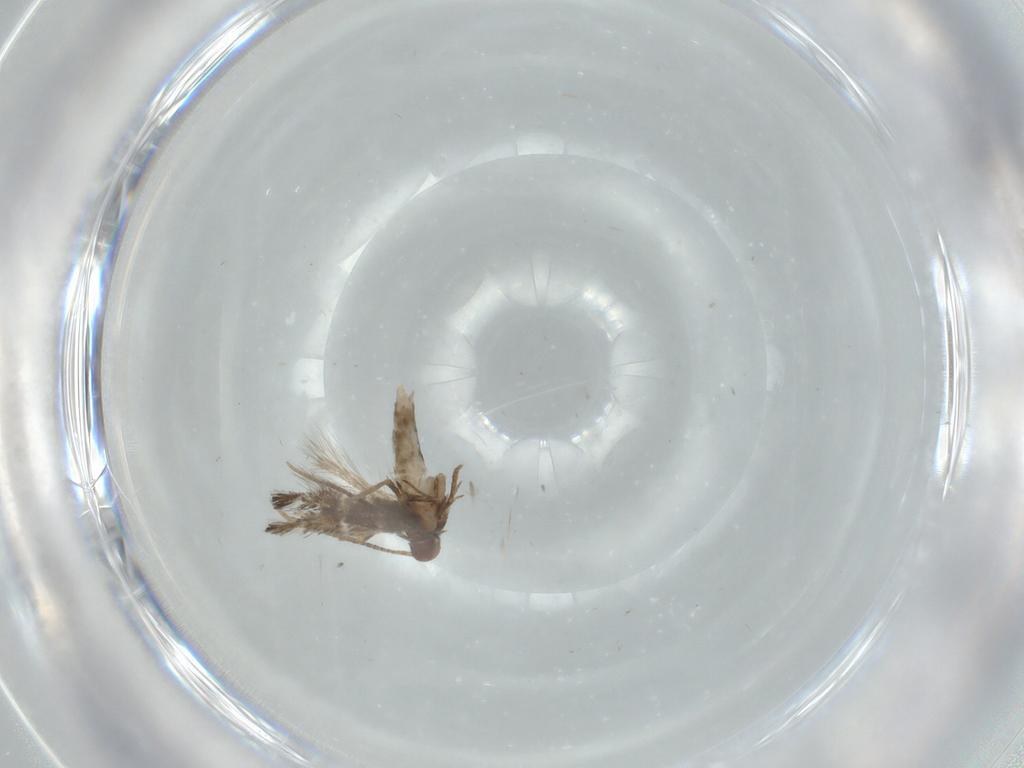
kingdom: Animalia
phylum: Arthropoda
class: Insecta
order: Lepidoptera
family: Gracillariidae
